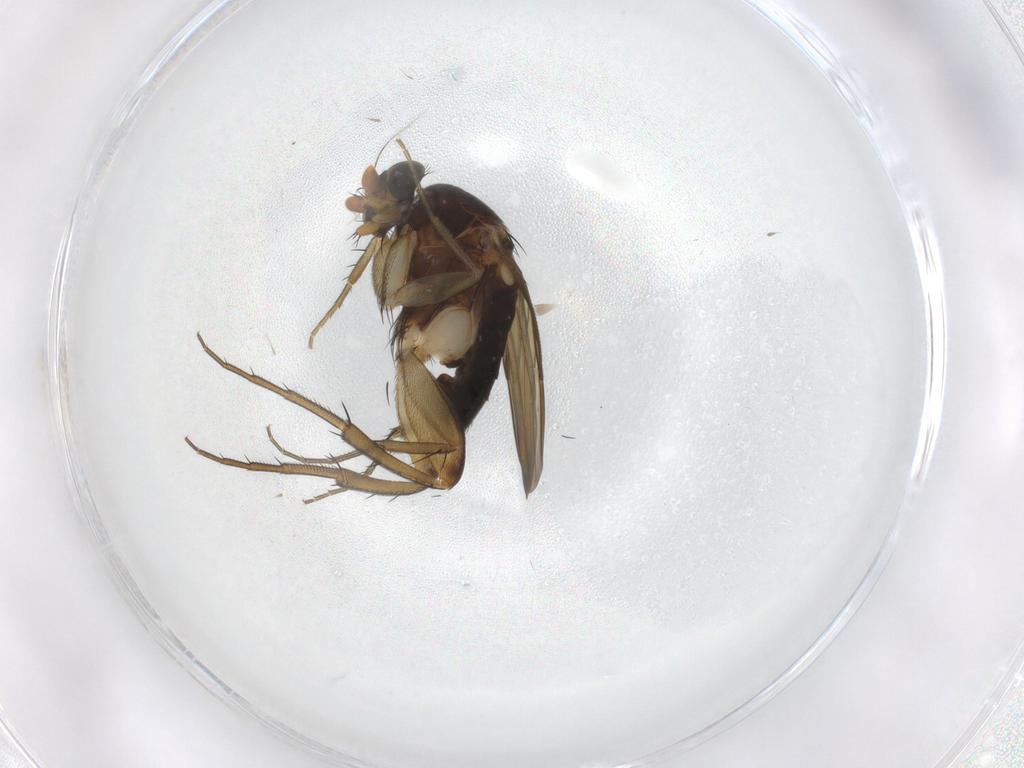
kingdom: Animalia
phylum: Arthropoda
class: Insecta
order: Diptera
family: Phoridae
